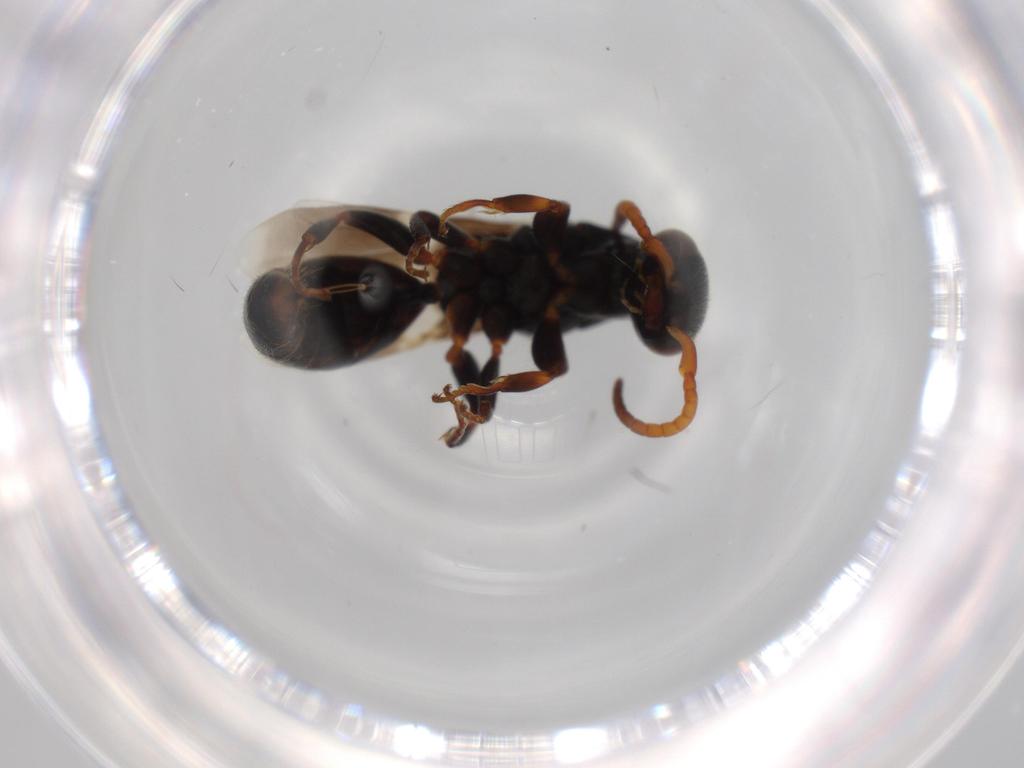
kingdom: Animalia
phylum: Arthropoda
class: Insecta
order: Hymenoptera
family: Bethylidae
